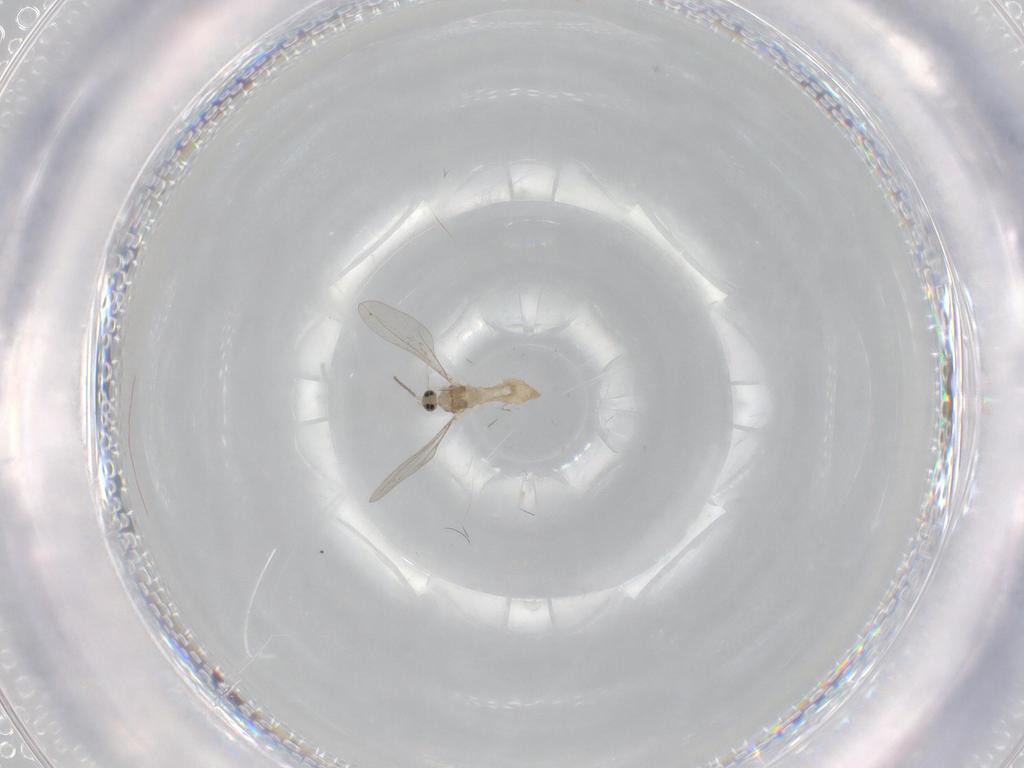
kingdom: Animalia
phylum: Arthropoda
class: Insecta
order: Diptera
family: Cecidomyiidae
